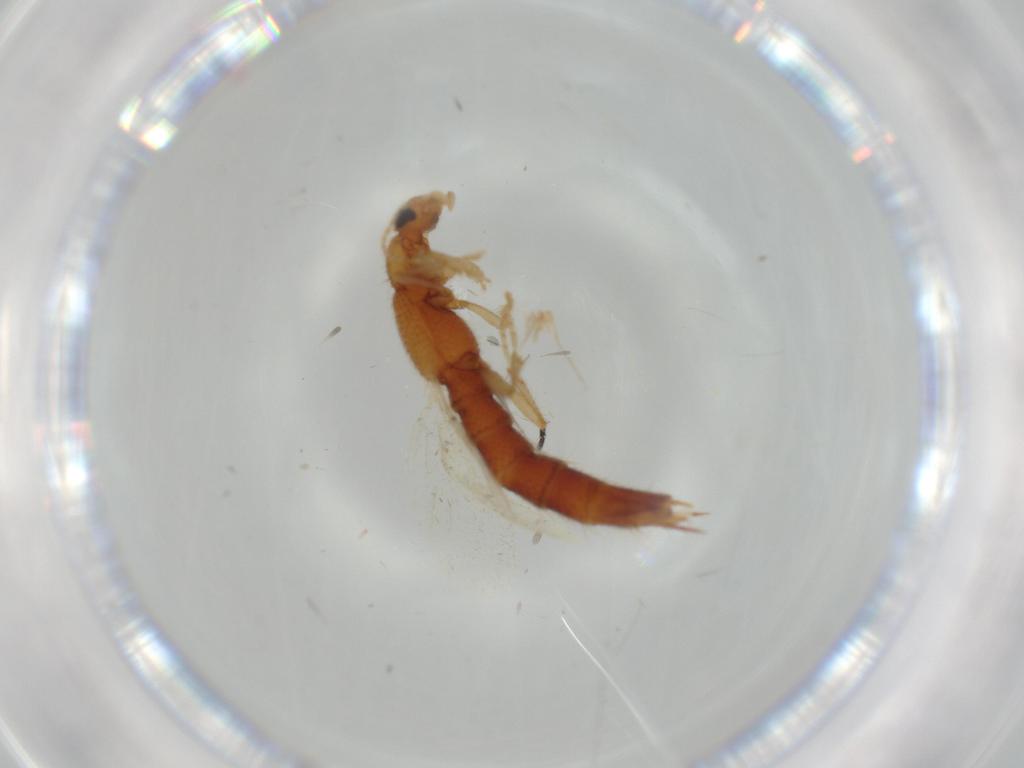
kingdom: Animalia
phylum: Arthropoda
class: Insecta
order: Coleoptera
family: Staphylinidae
